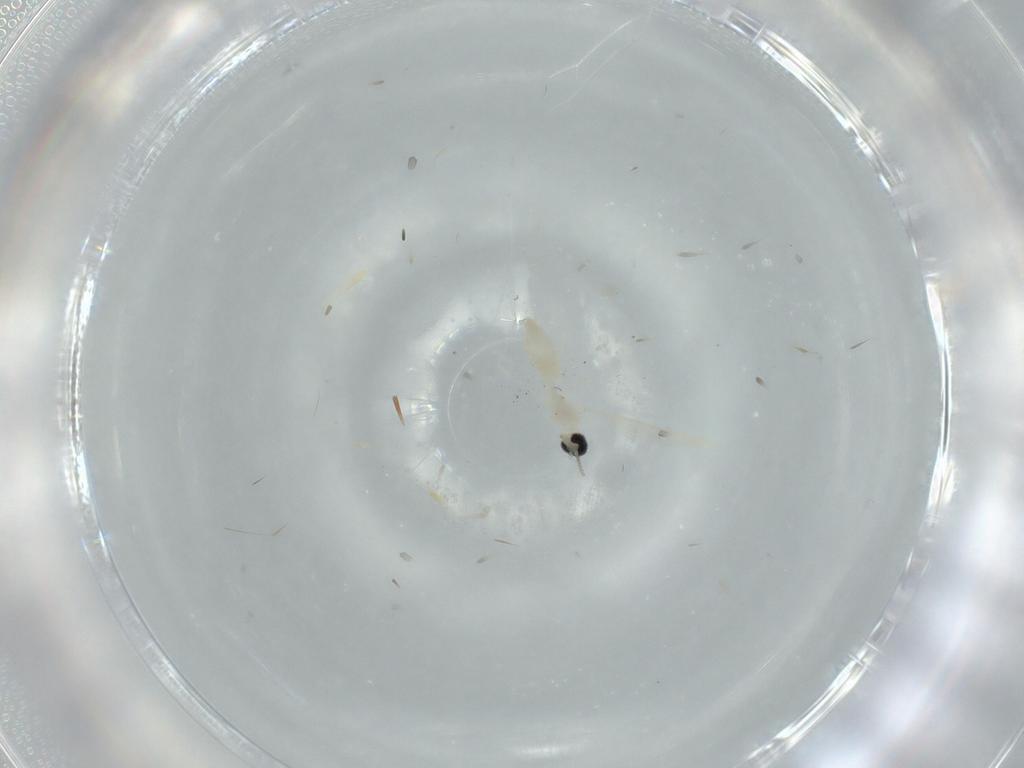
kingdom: Animalia
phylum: Arthropoda
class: Insecta
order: Diptera
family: Cecidomyiidae
